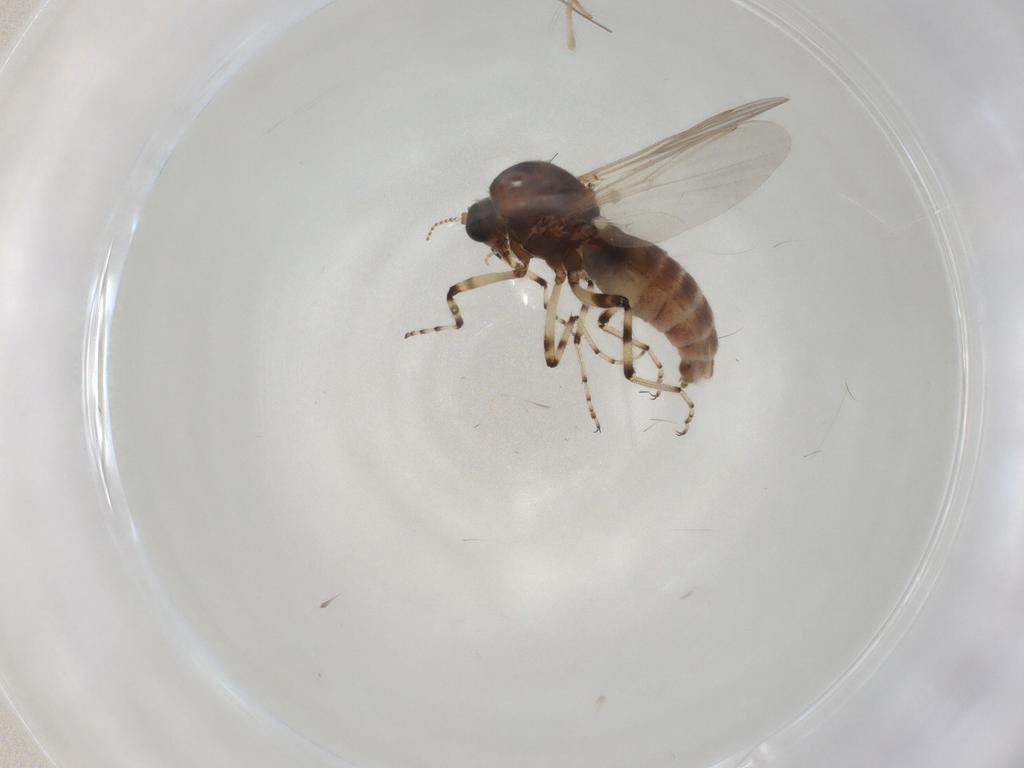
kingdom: Animalia
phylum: Arthropoda
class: Insecta
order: Diptera
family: Ceratopogonidae
